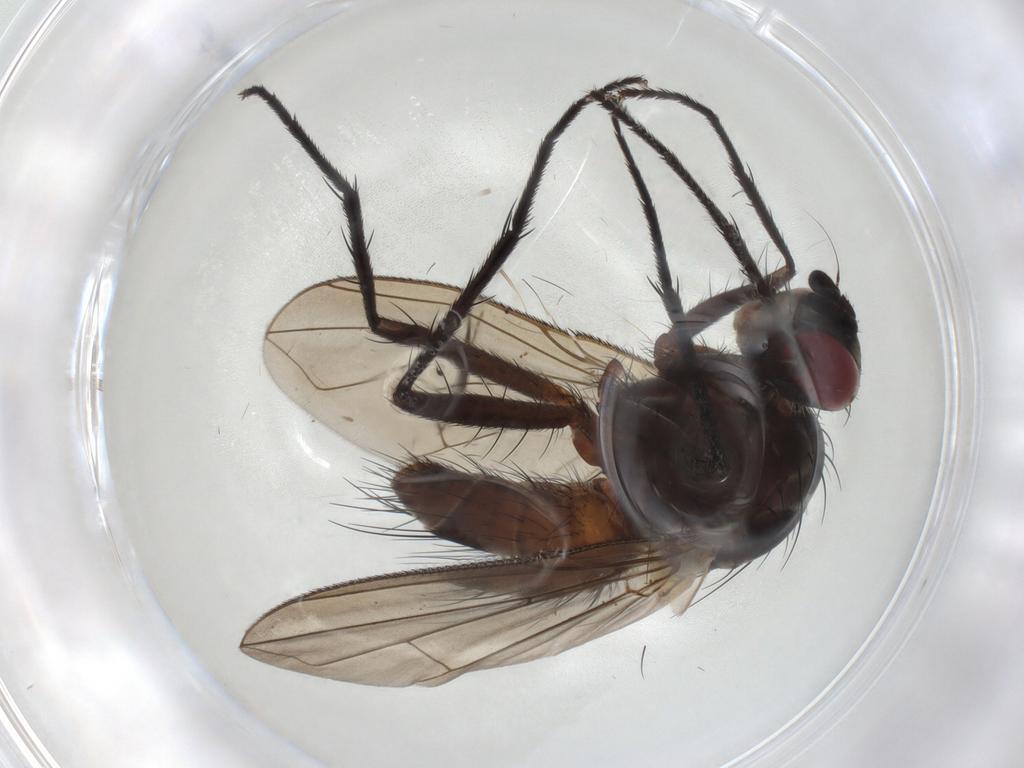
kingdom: Animalia
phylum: Arthropoda
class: Insecta
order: Diptera
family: Muscidae
